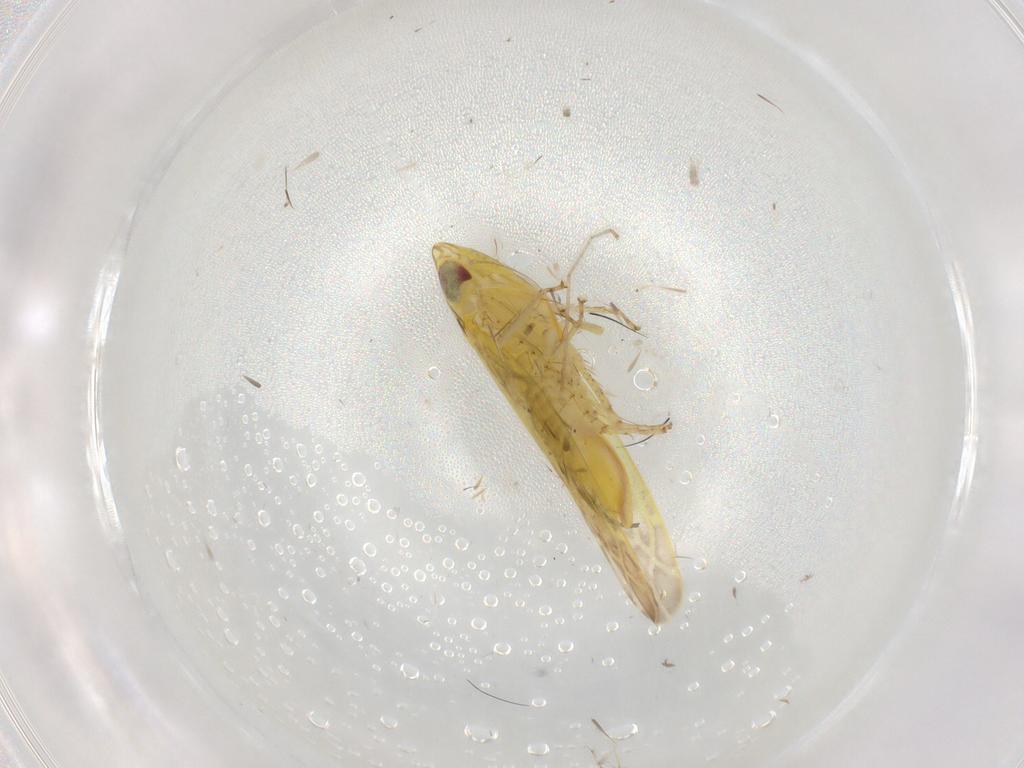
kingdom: Animalia
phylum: Arthropoda
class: Insecta
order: Hemiptera
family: Cicadellidae
